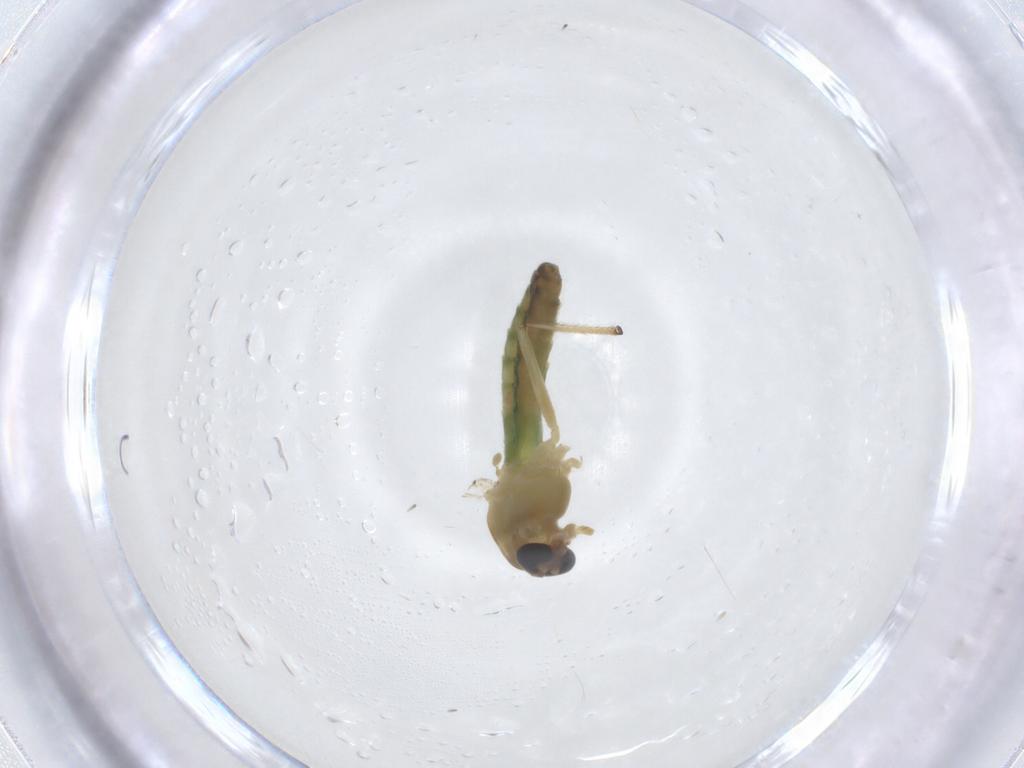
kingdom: Animalia
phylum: Arthropoda
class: Insecta
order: Diptera
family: Chironomidae
